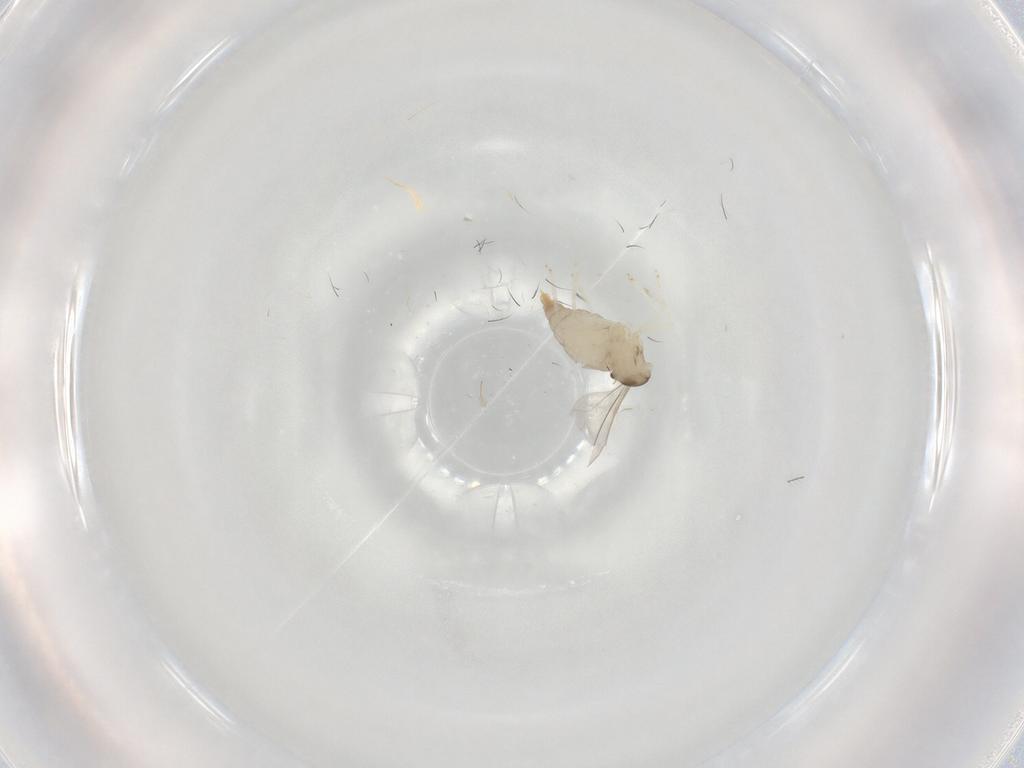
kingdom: Animalia
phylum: Arthropoda
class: Insecta
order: Diptera
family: Cecidomyiidae
